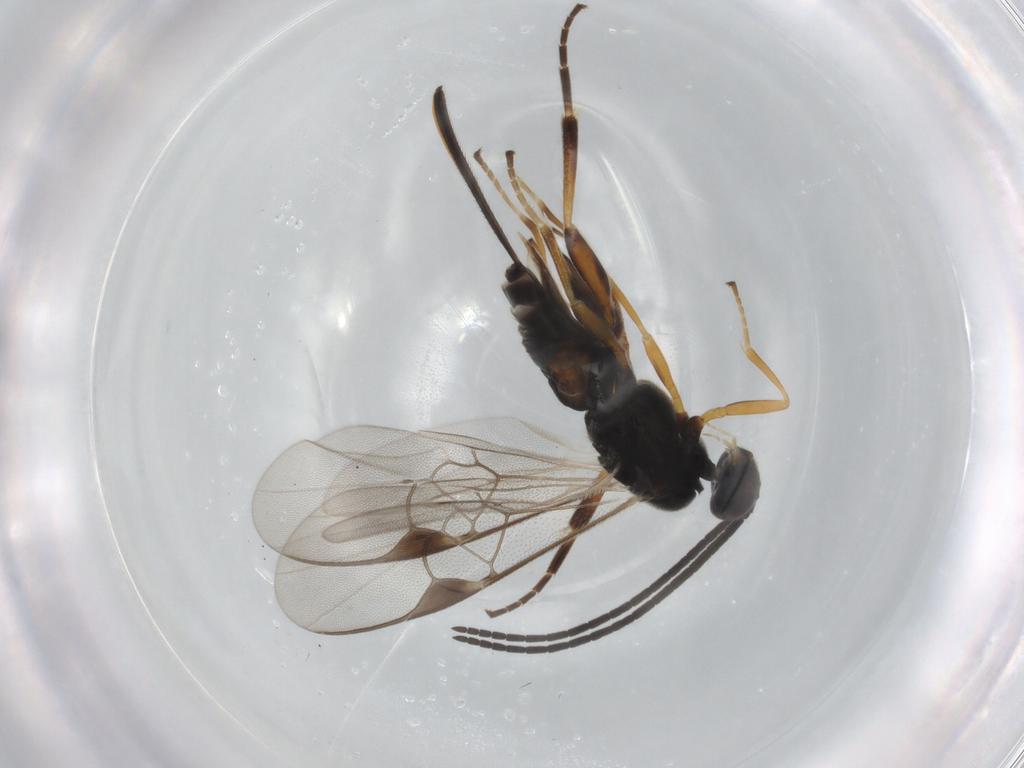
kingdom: Animalia
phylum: Arthropoda
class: Insecta
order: Hymenoptera
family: Braconidae
